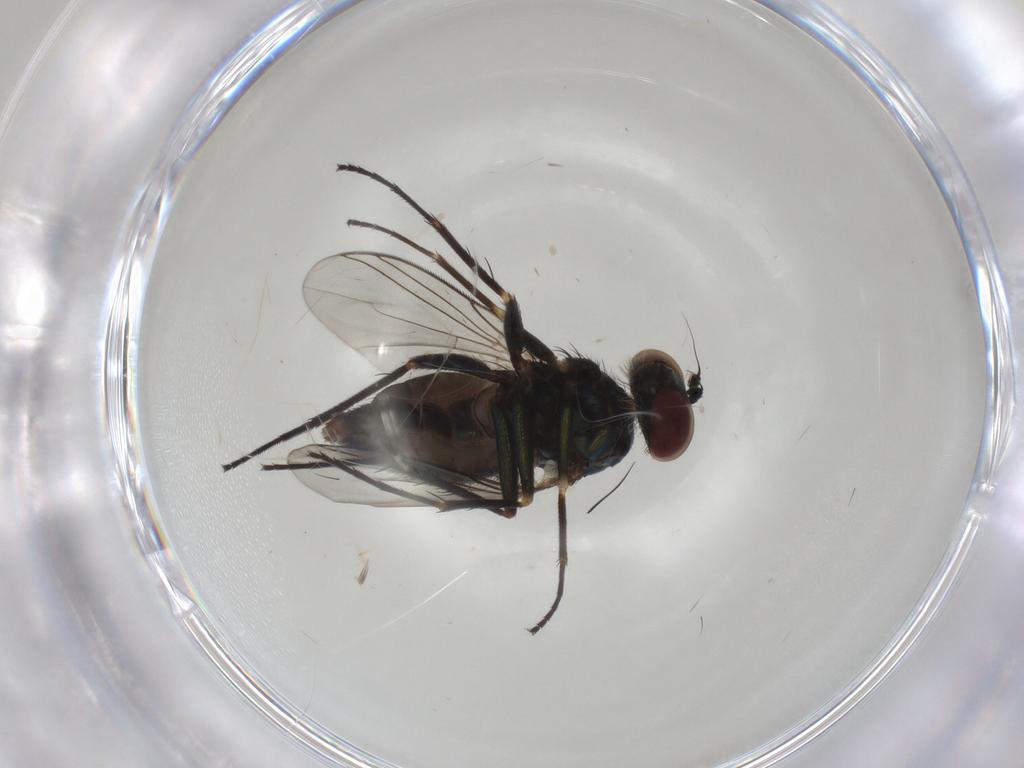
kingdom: Animalia
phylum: Arthropoda
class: Insecta
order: Diptera
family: Dolichopodidae
